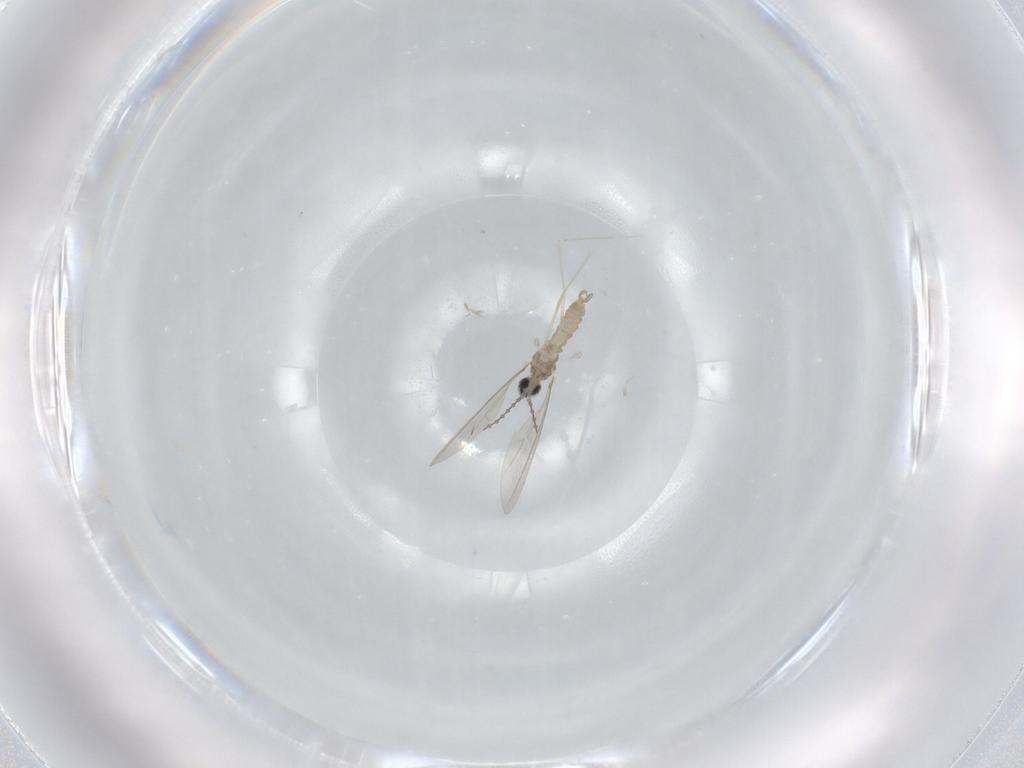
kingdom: Animalia
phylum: Arthropoda
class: Insecta
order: Diptera
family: Cecidomyiidae
